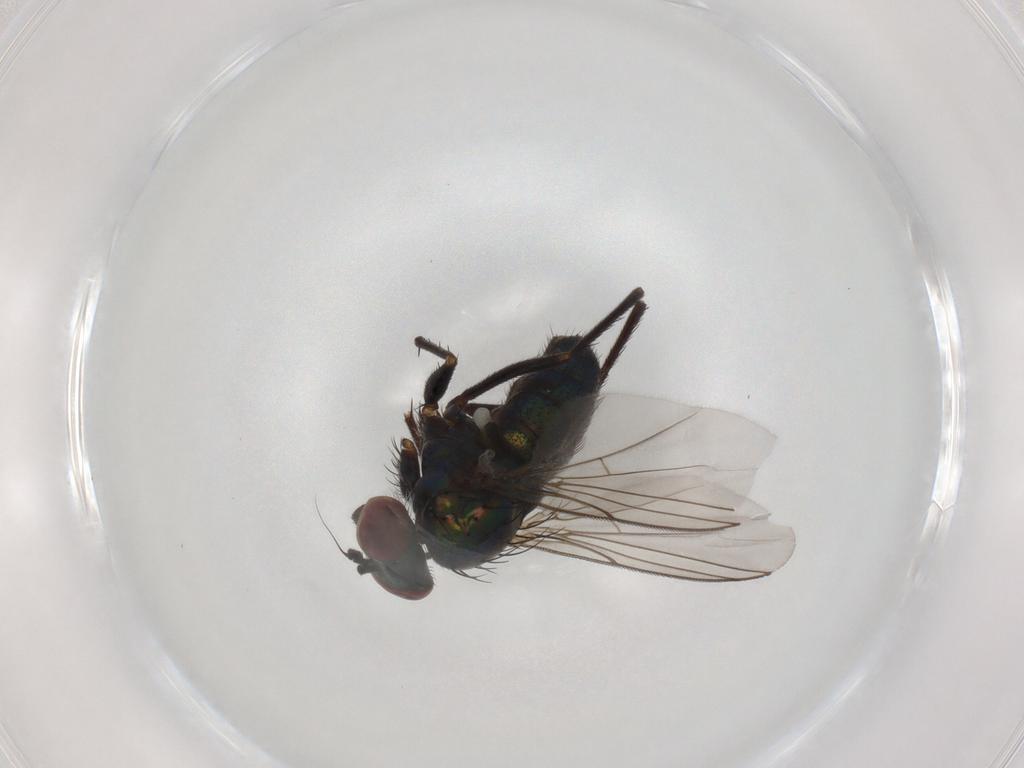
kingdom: Animalia
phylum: Arthropoda
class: Insecta
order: Diptera
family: Dolichopodidae
